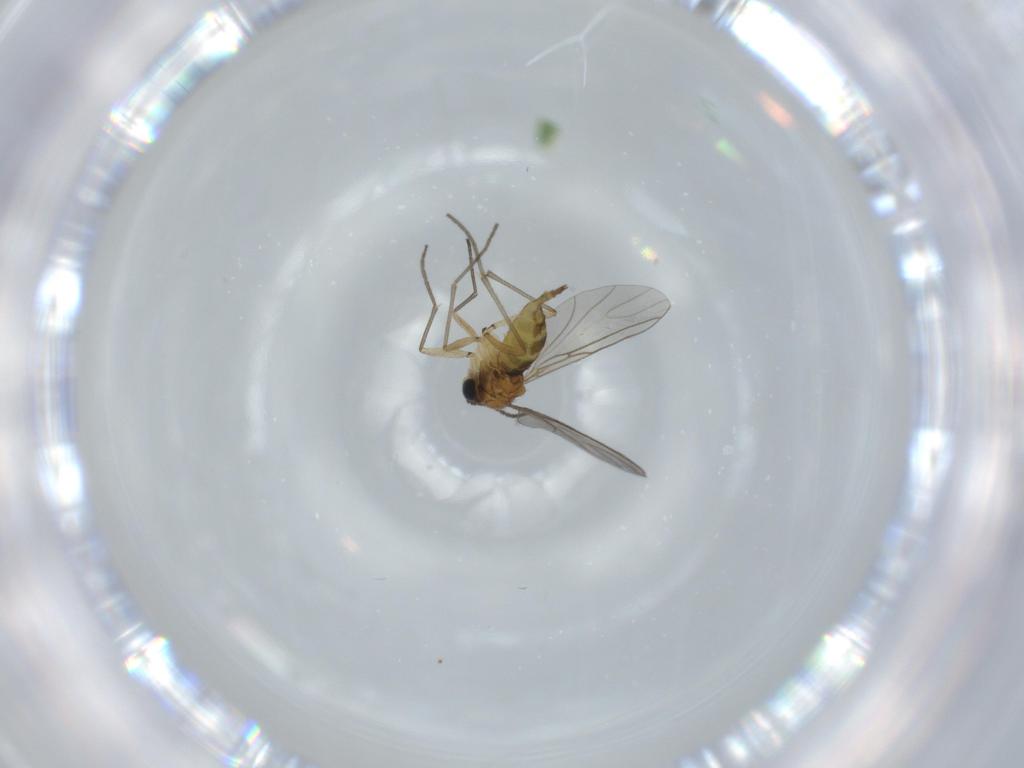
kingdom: Animalia
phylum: Arthropoda
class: Insecta
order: Diptera
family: Sciaridae
